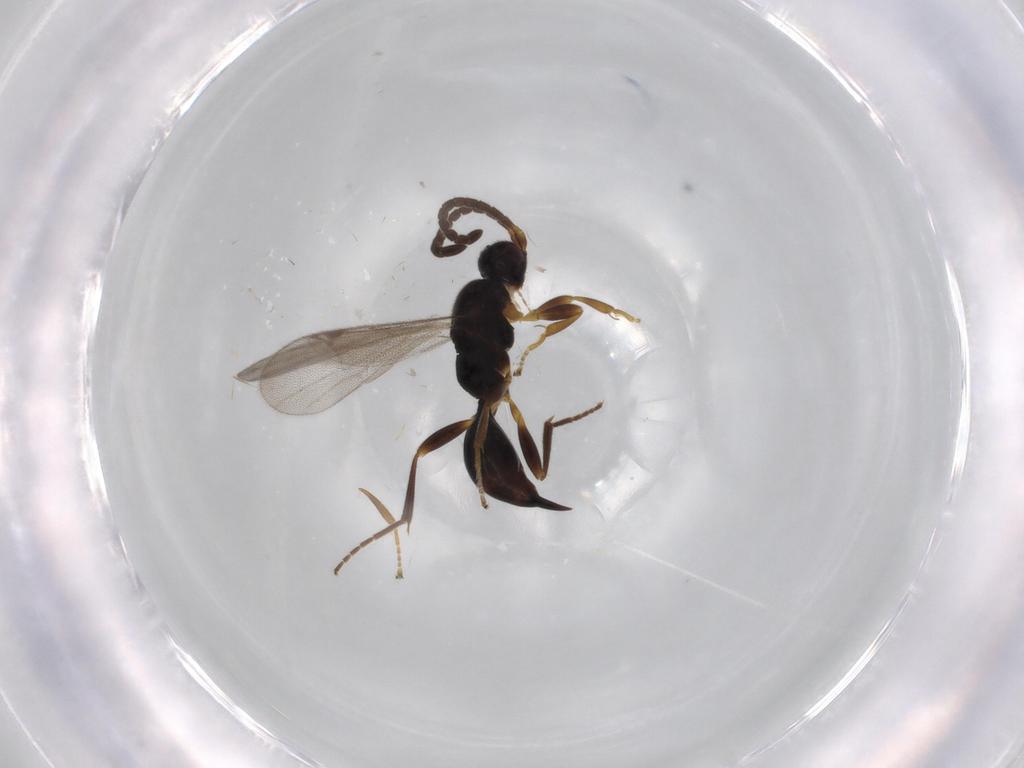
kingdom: Animalia
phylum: Arthropoda
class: Insecta
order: Hymenoptera
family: Proctotrupidae
